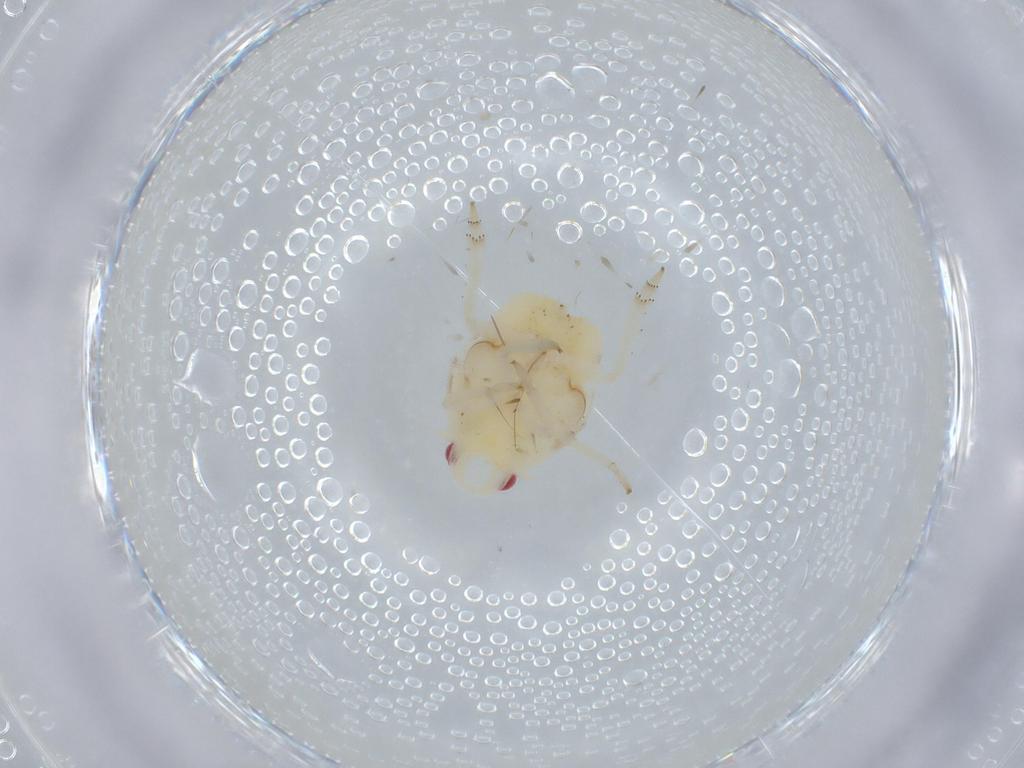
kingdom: Animalia
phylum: Arthropoda
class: Insecta
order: Hemiptera
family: Flatidae
